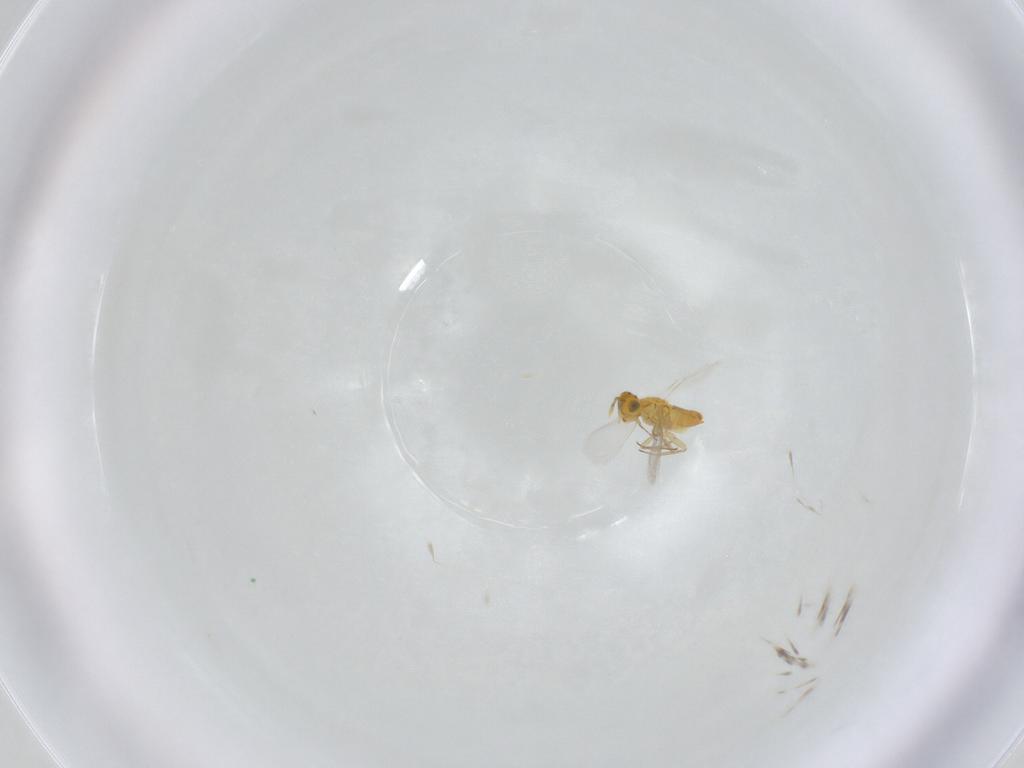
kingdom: Animalia
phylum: Arthropoda
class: Insecta
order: Hymenoptera
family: Aphelinidae
